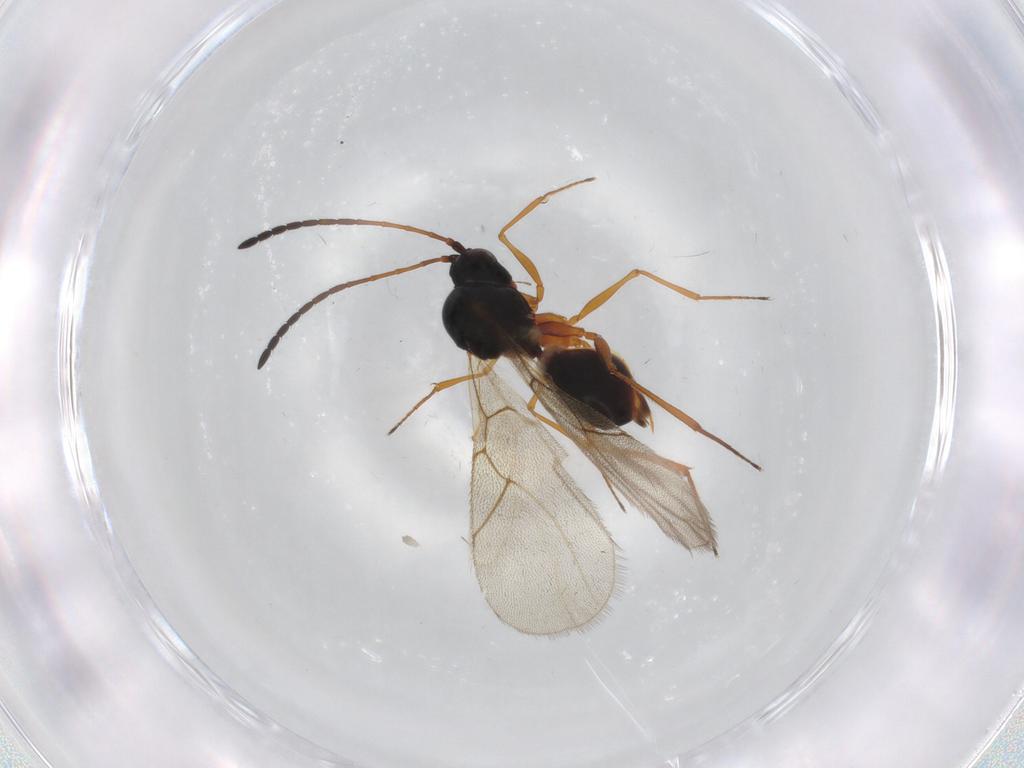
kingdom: Animalia
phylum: Arthropoda
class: Insecta
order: Hymenoptera
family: Figitidae
